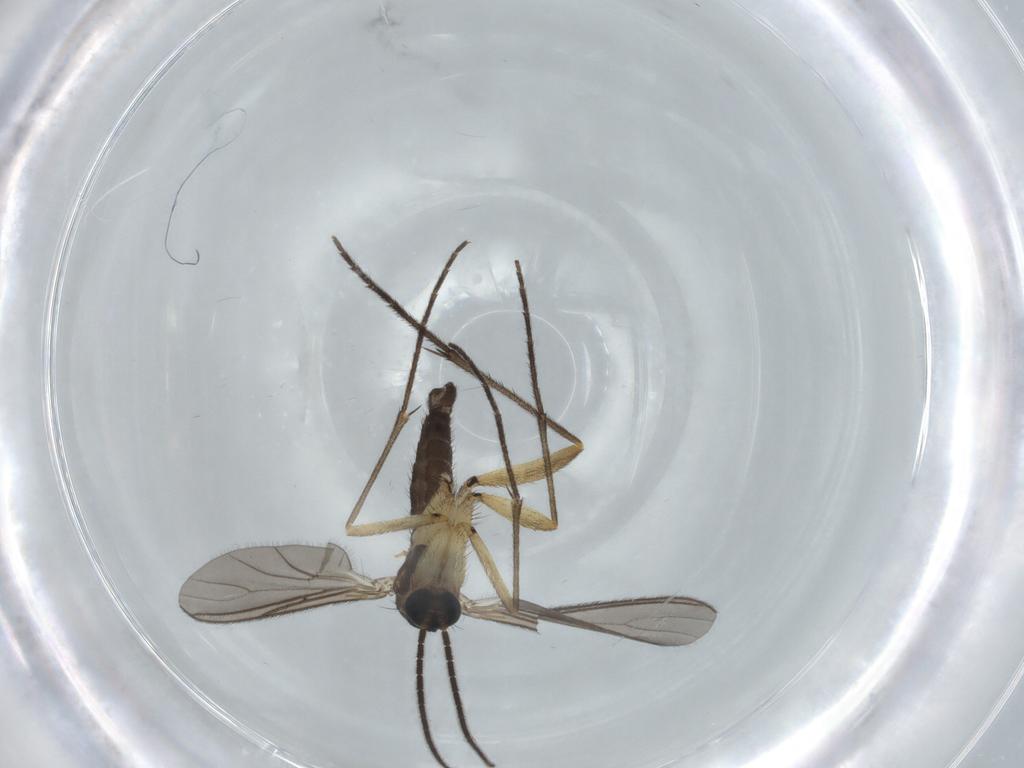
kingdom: Animalia
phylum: Arthropoda
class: Insecta
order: Diptera
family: Sciaridae
